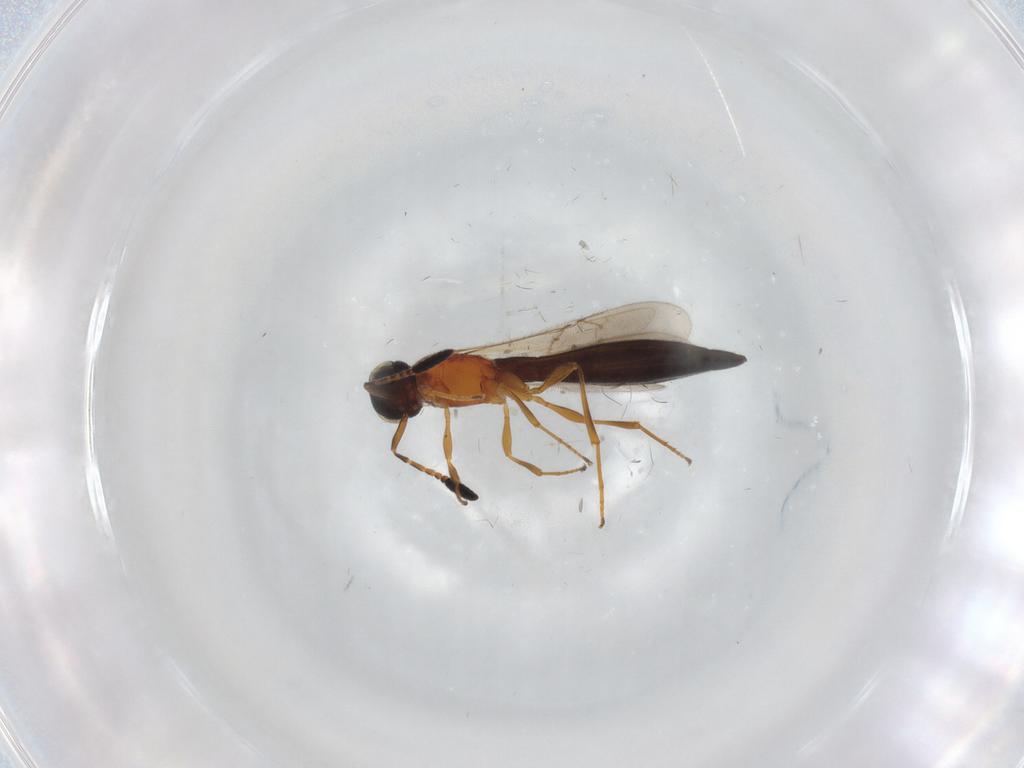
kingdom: Animalia
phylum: Arthropoda
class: Insecta
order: Hymenoptera
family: Scelionidae
